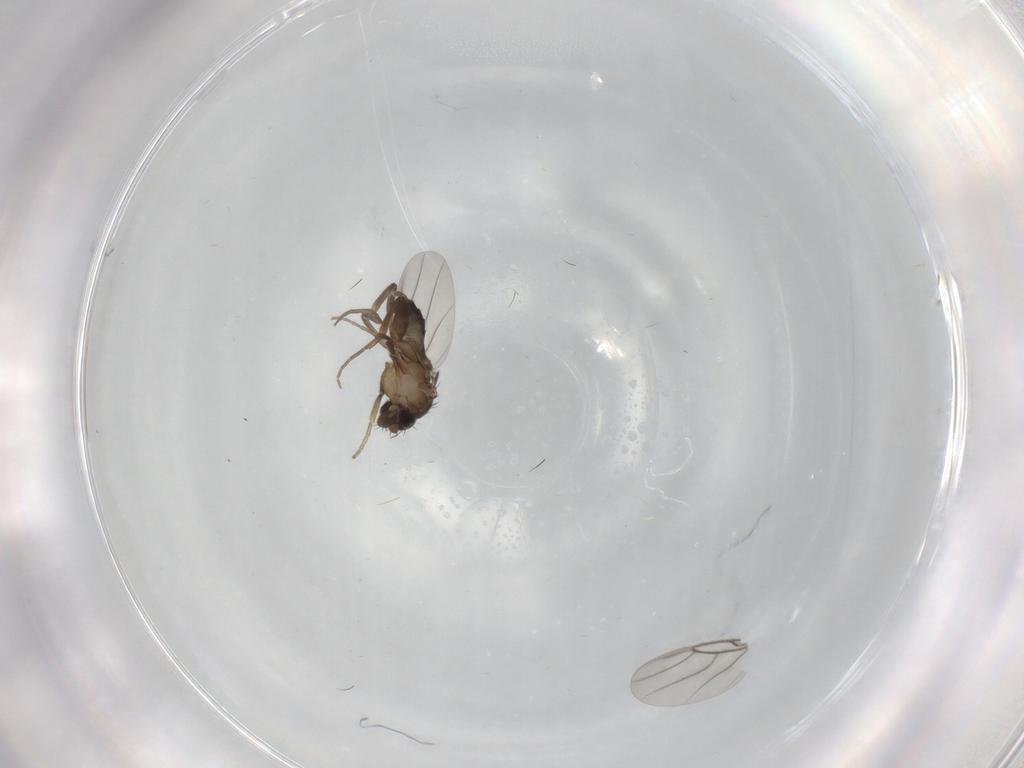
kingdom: Animalia
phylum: Arthropoda
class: Insecta
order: Diptera
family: Phoridae
